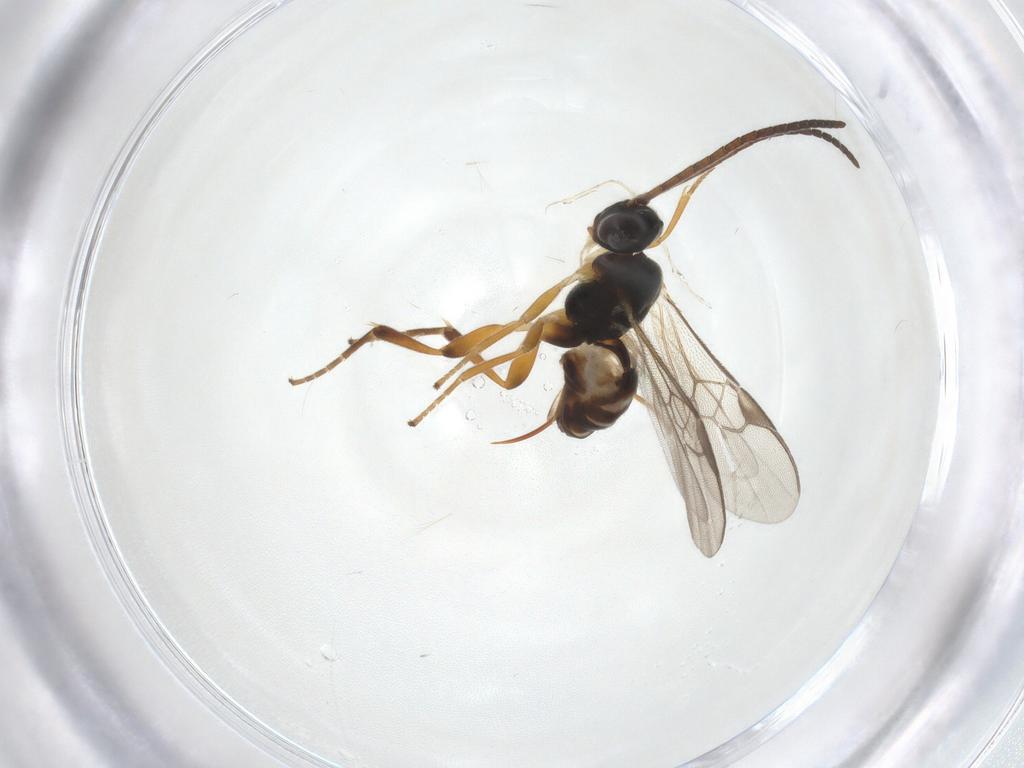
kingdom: Animalia
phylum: Arthropoda
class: Insecta
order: Hymenoptera
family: Braconidae
